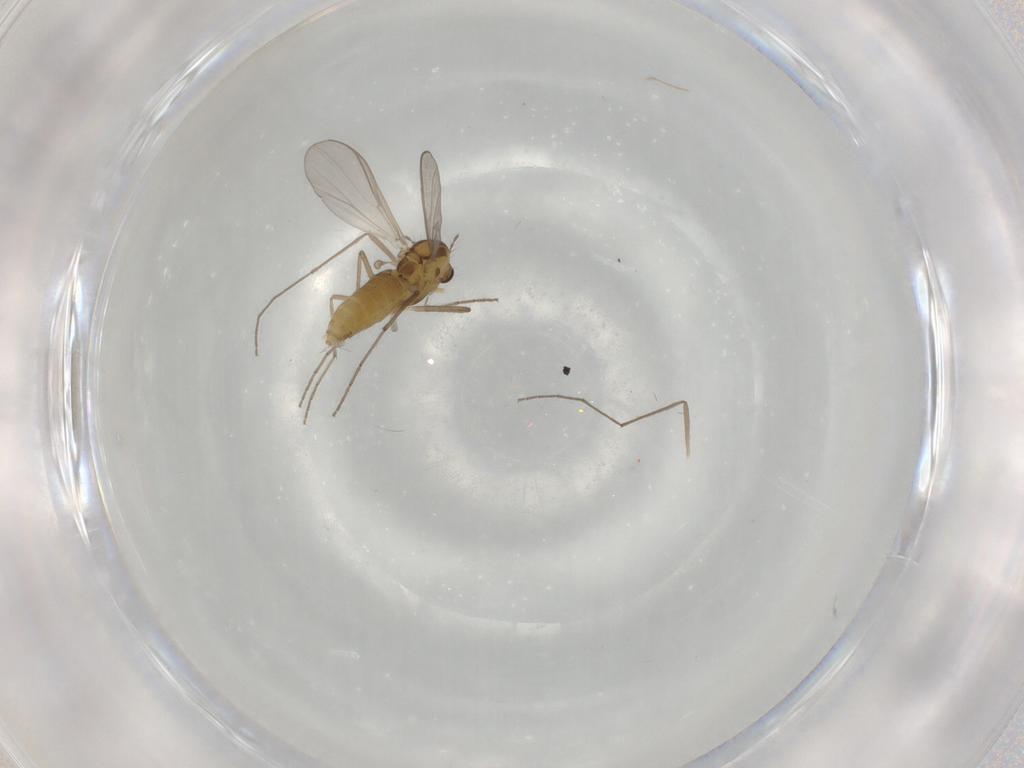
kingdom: Animalia
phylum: Arthropoda
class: Insecta
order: Diptera
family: Chironomidae
